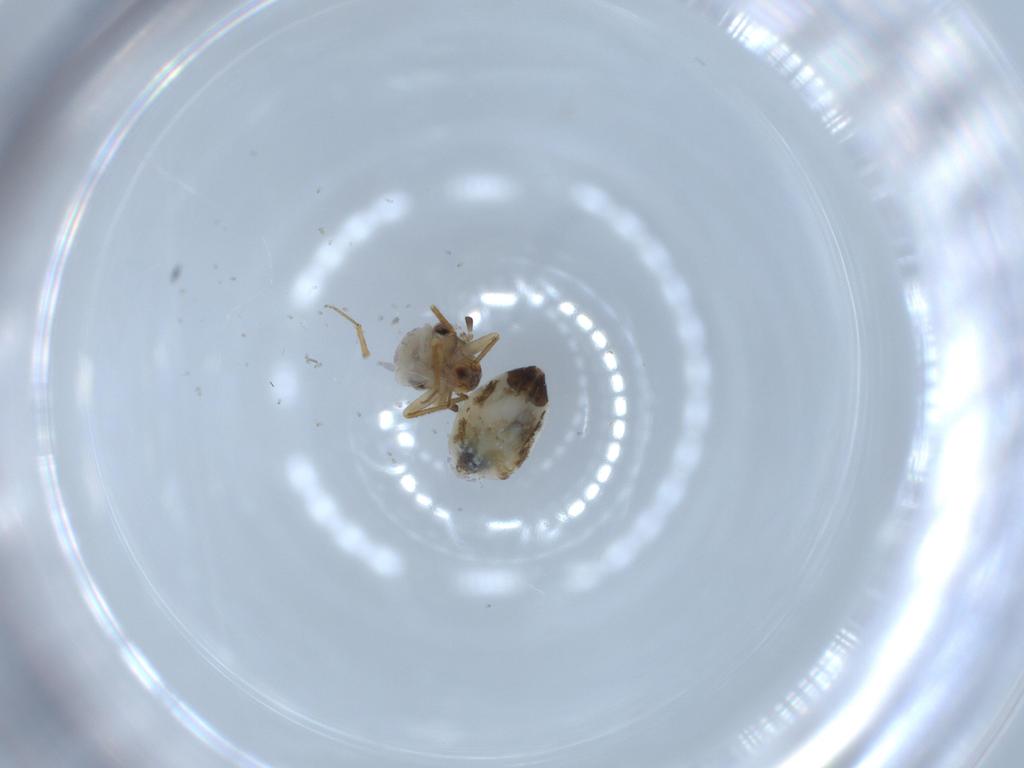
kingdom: Animalia
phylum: Arthropoda
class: Insecta
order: Psocodea
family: Lepidopsocidae
